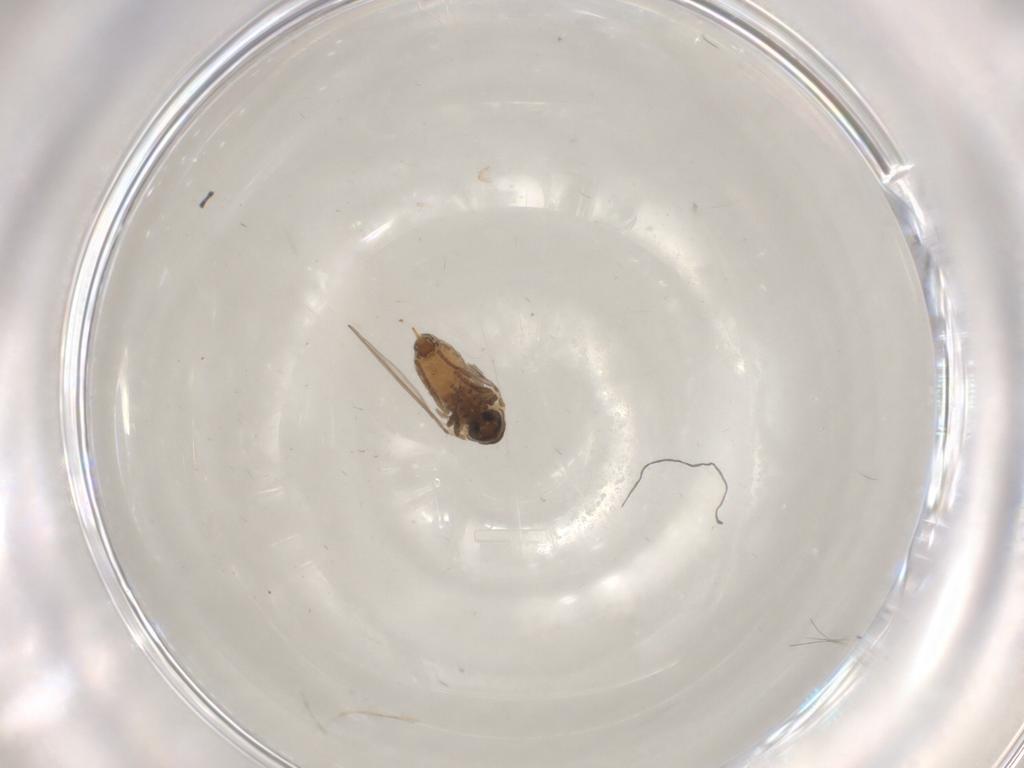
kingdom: Animalia
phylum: Arthropoda
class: Insecta
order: Diptera
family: Psychodidae
